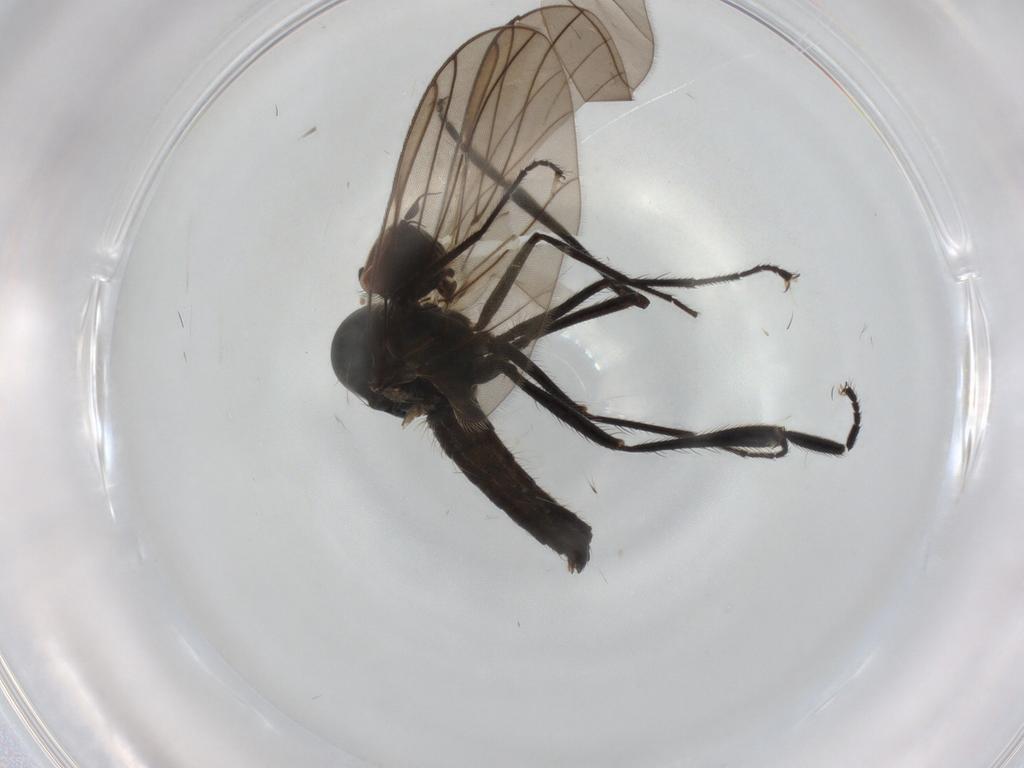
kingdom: Animalia
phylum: Arthropoda
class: Insecta
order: Diptera
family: Hybotidae
